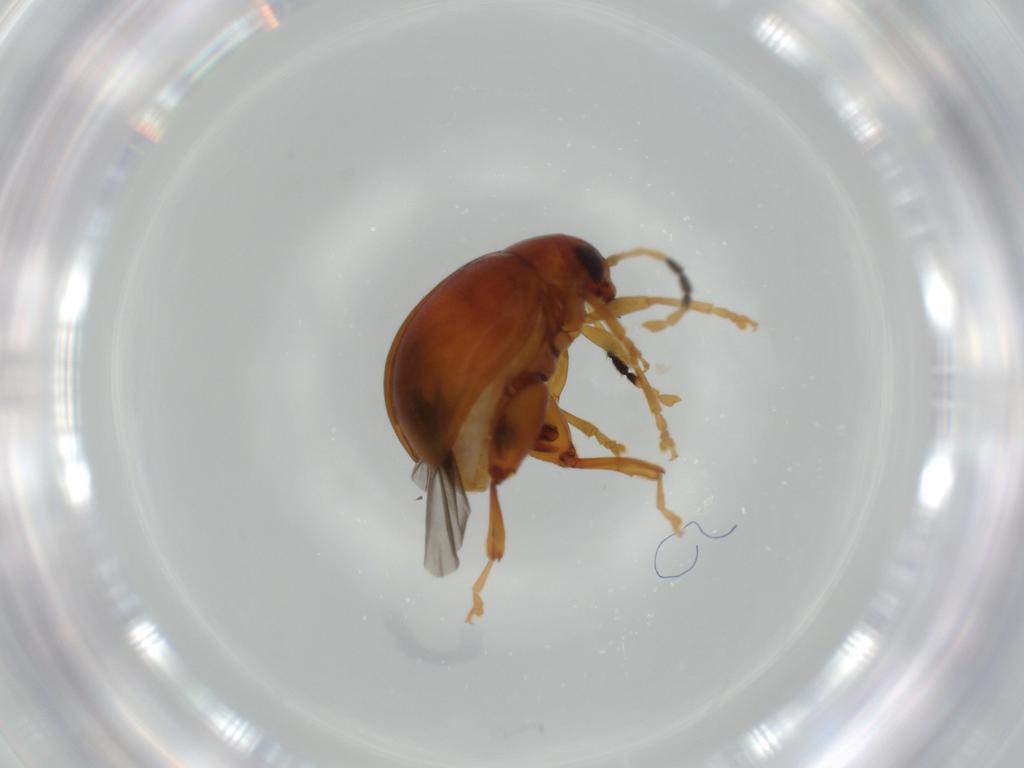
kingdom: Animalia
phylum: Arthropoda
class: Insecta
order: Coleoptera
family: Chrysomelidae
